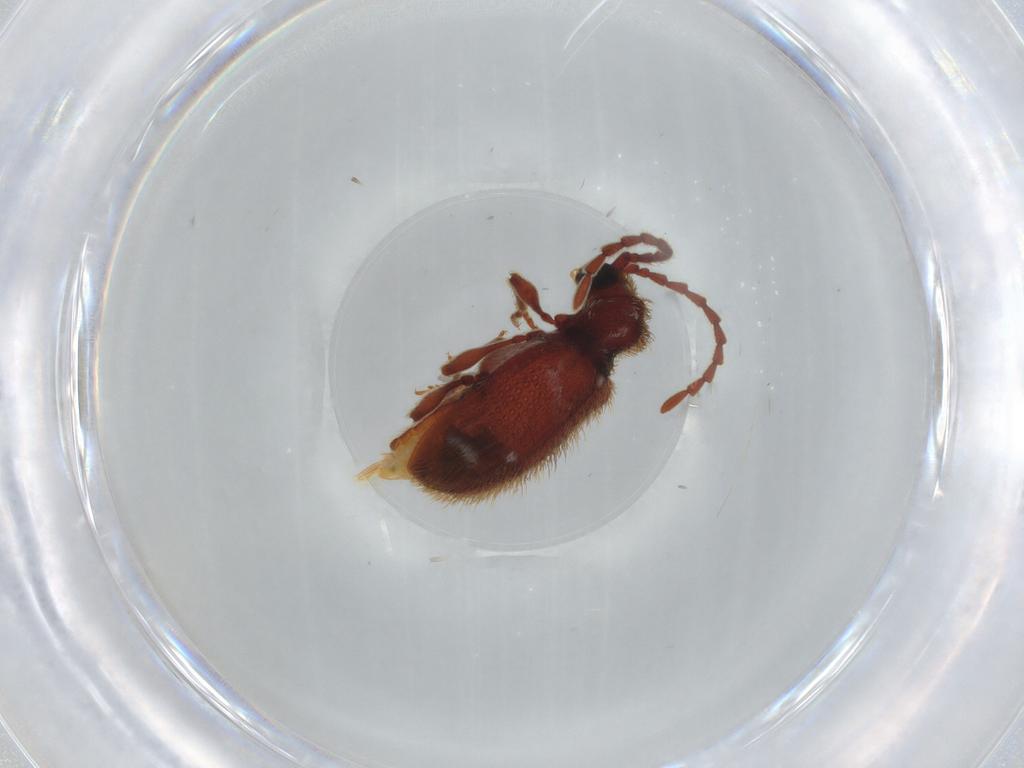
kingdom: Animalia
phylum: Arthropoda
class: Insecta
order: Coleoptera
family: Ptinidae
